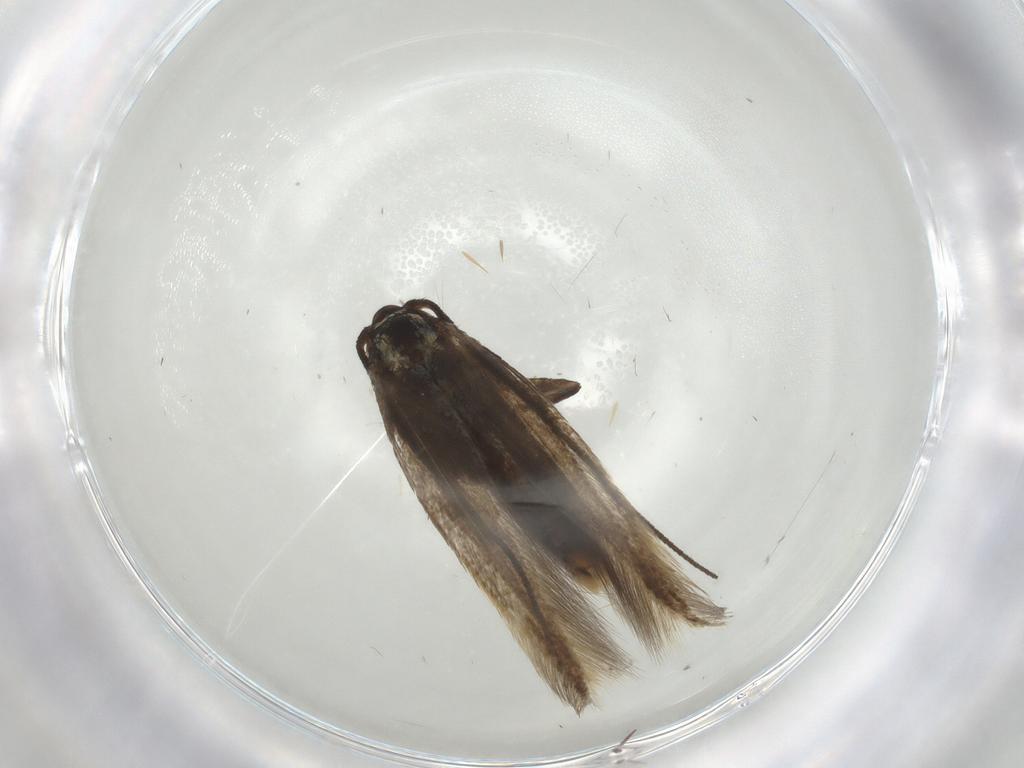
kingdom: Animalia
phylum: Arthropoda
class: Insecta
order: Lepidoptera
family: Tineidae
